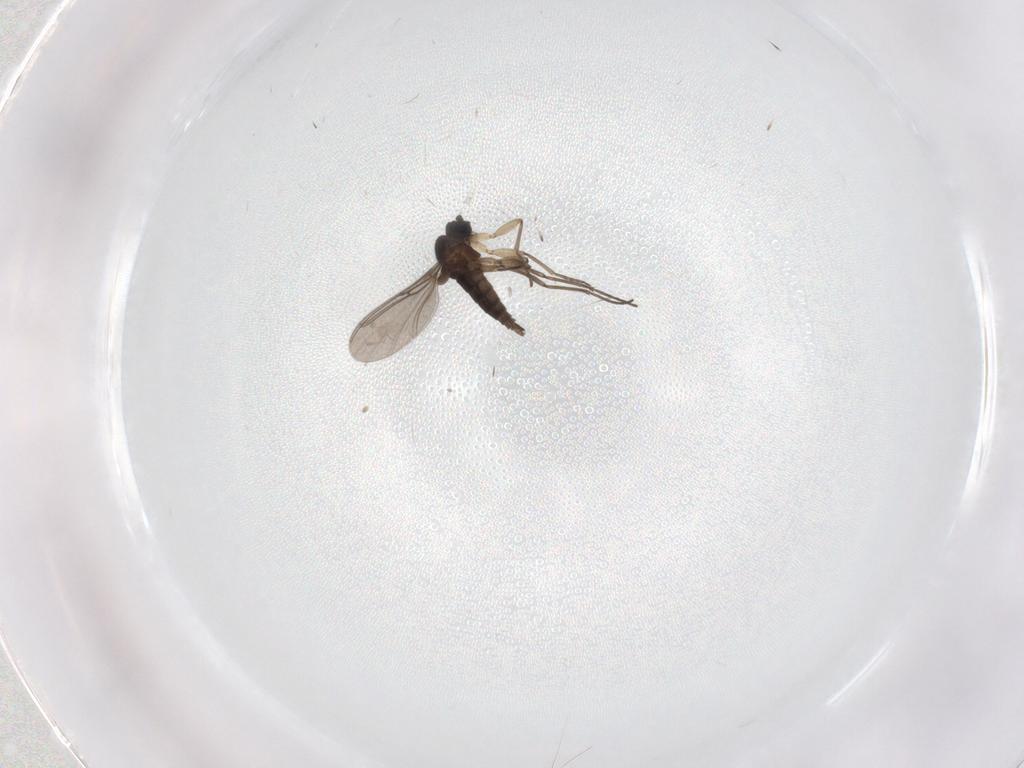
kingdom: Animalia
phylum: Arthropoda
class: Insecta
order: Diptera
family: Sciaridae
